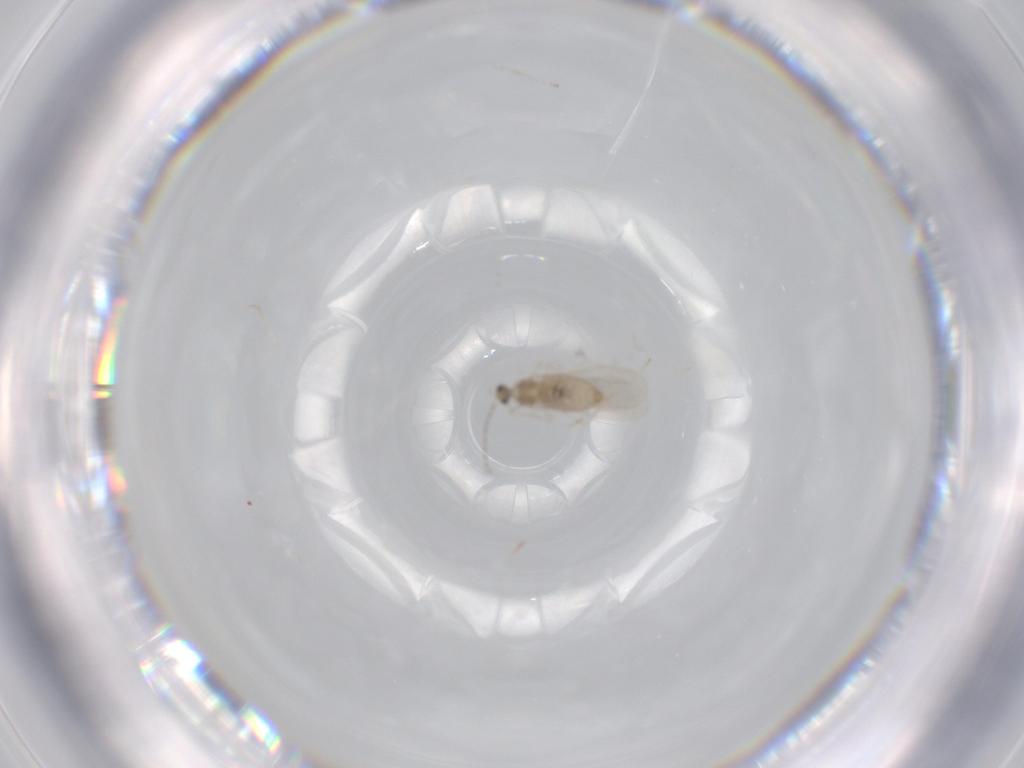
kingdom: Animalia
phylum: Arthropoda
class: Insecta
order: Diptera
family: Cecidomyiidae
